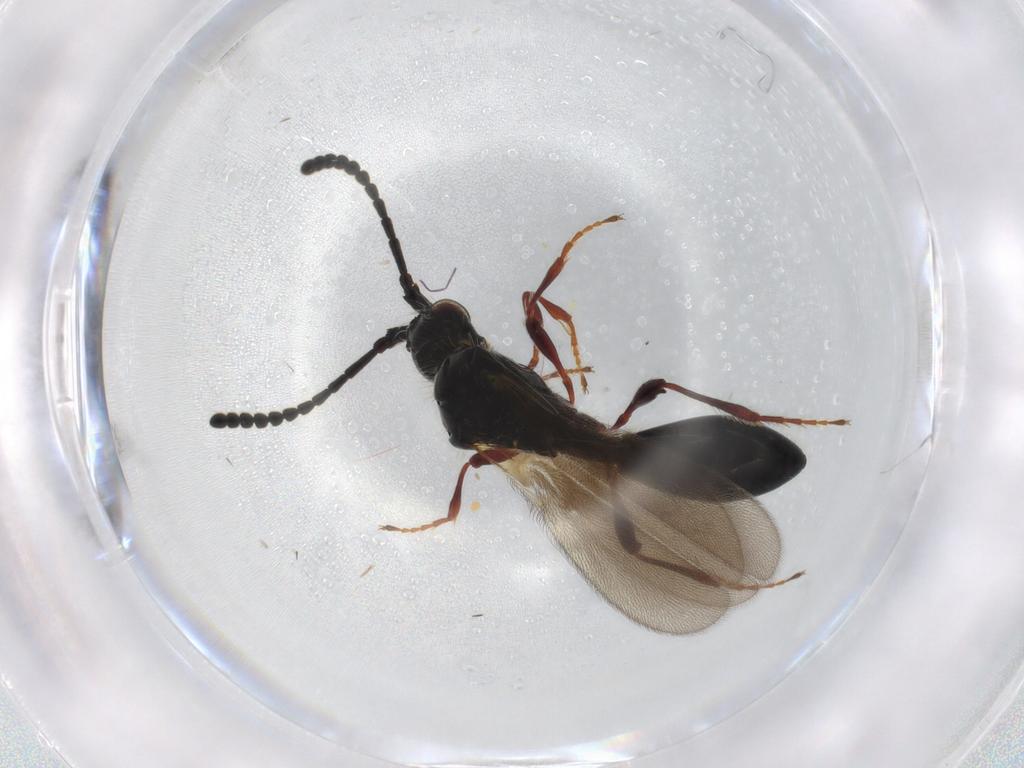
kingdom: Animalia
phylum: Arthropoda
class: Insecta
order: Hymenoptera
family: Diapriidae
